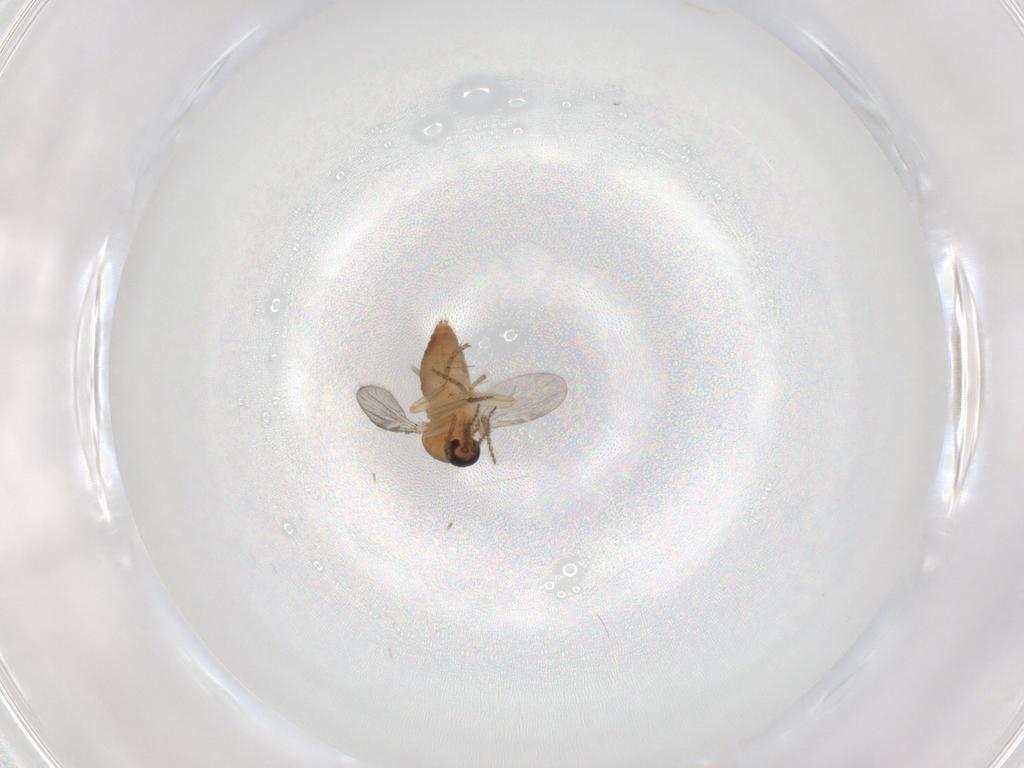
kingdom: Animalia
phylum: Arthropoda
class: Insecta
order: Diptera
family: Ceratopogonidae
